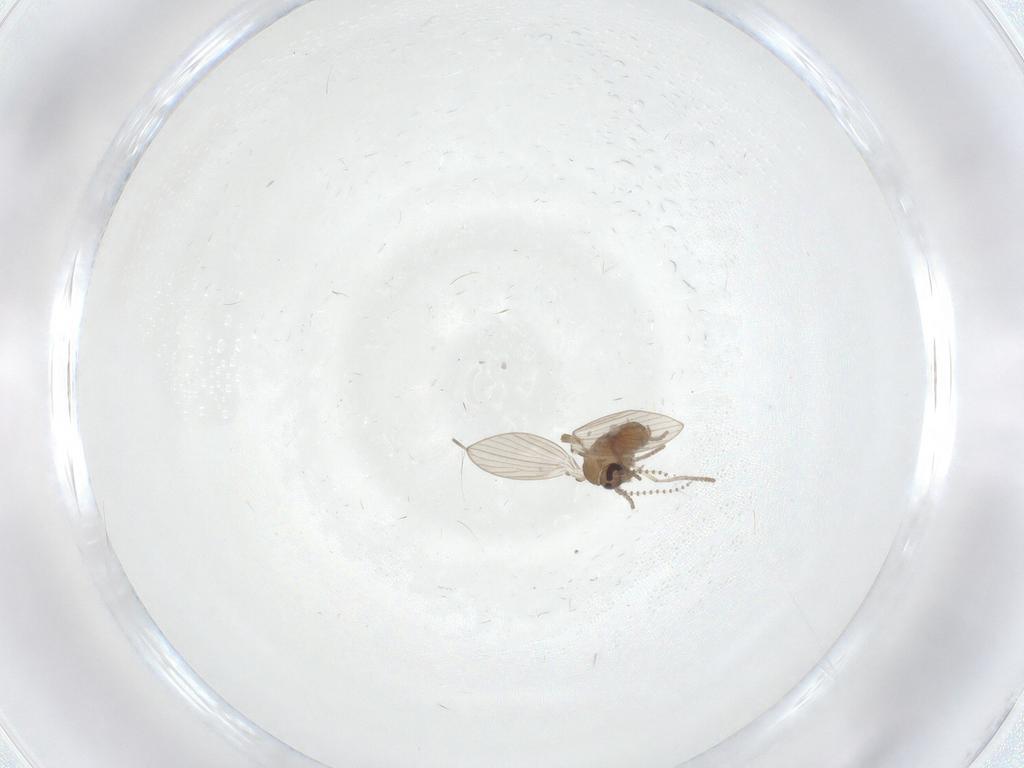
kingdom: Animalia
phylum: Arthropoda
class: Insecta
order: Diptera
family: Psychodidae
